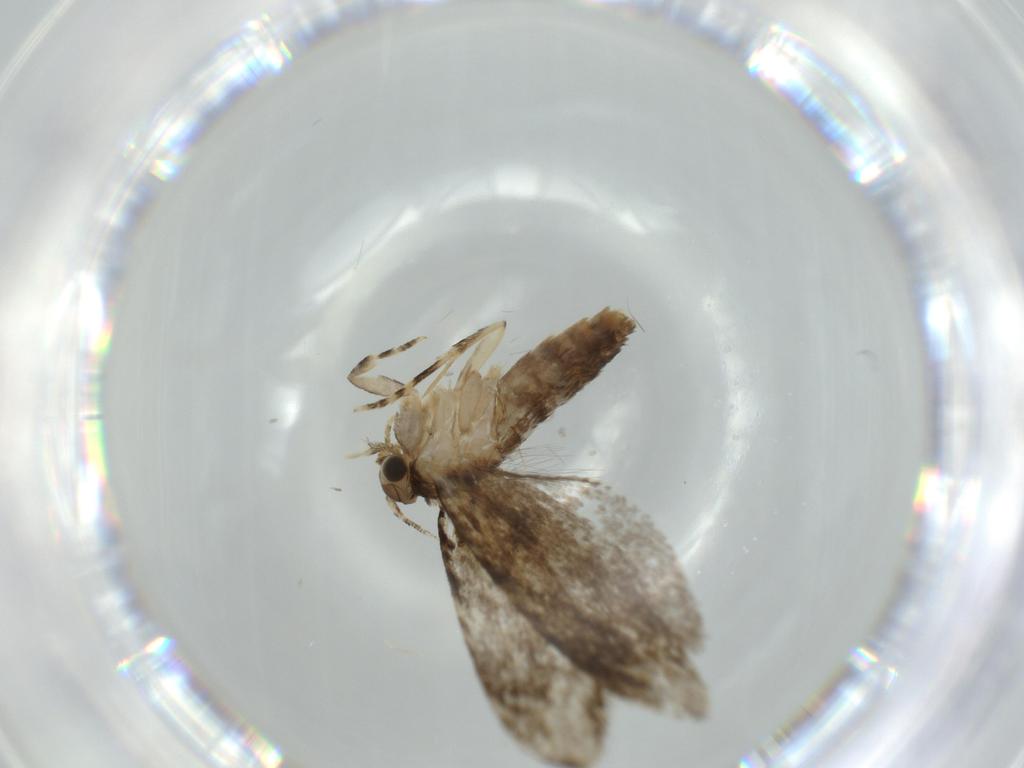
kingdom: Animalia
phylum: Arthropoda
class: Insecta
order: Lepidoptera
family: Tineidae
